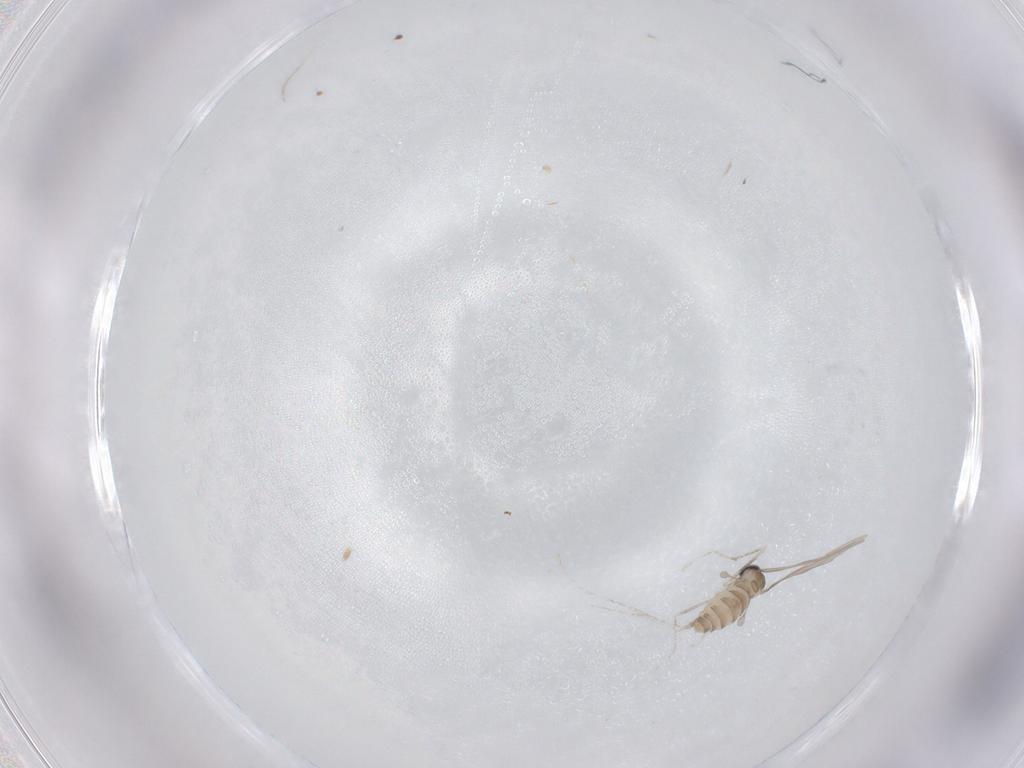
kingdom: Animalia
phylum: Arthropoda
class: Insecta
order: Diptera
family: Cecidomyiidae
